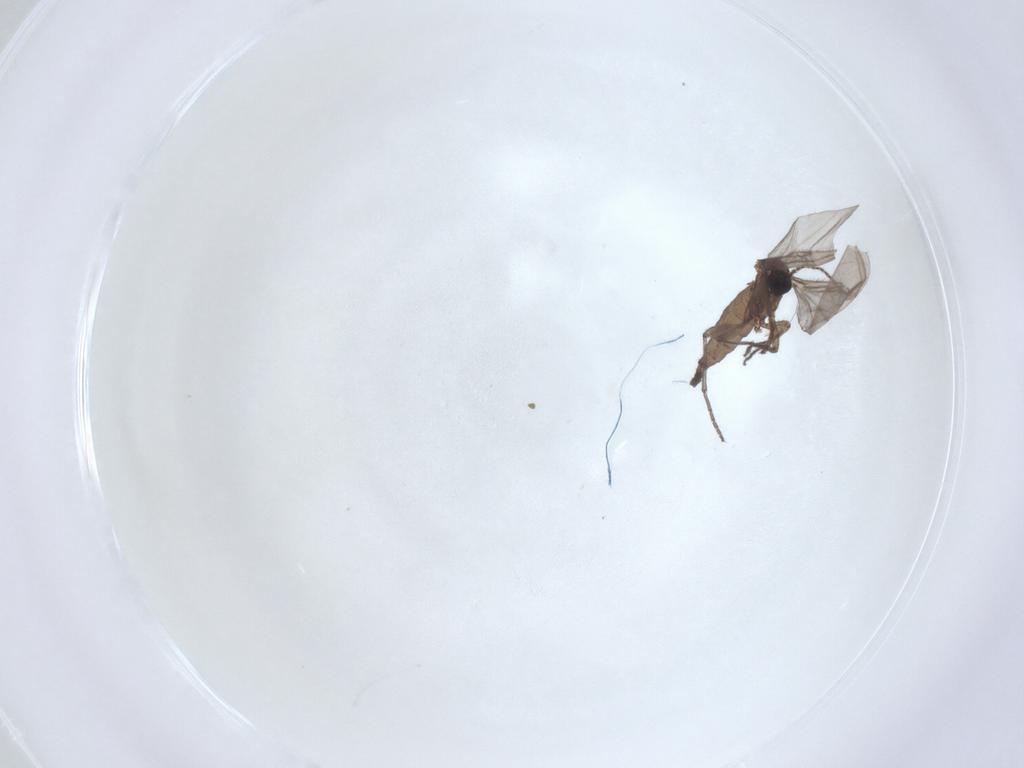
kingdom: Animalia
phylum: Arthropoda
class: Insecta
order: Diptera
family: Sciaridae
